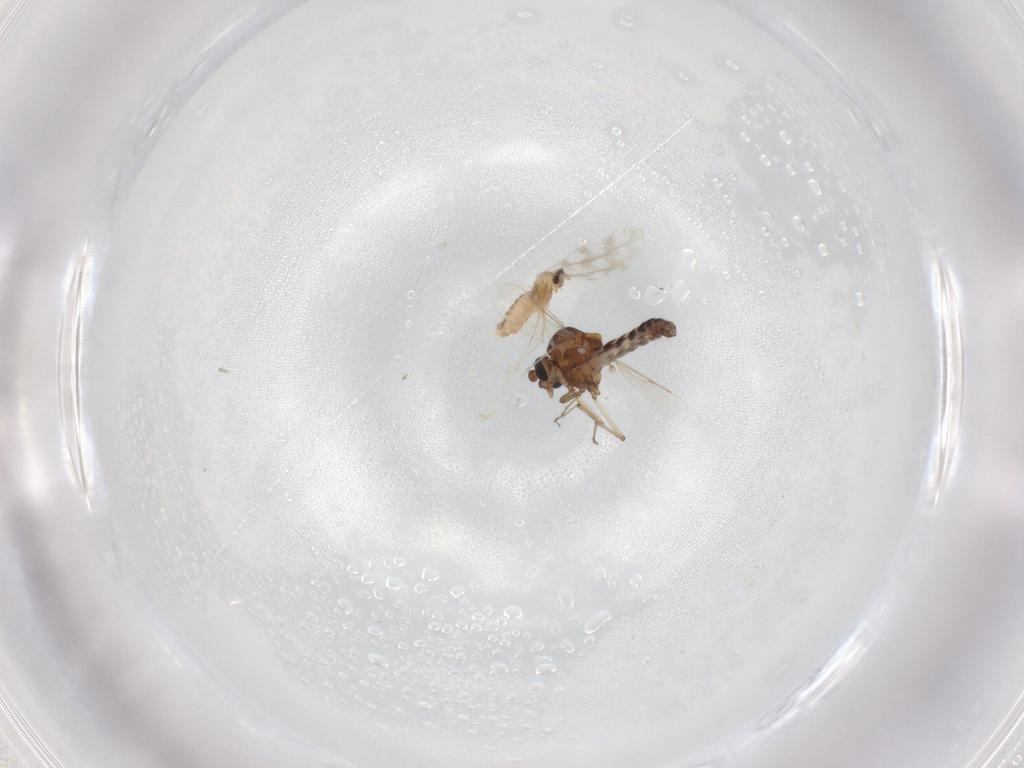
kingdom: Animalia
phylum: Arthropoda
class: Insecta
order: Diptera
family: Ceratopogonidae
